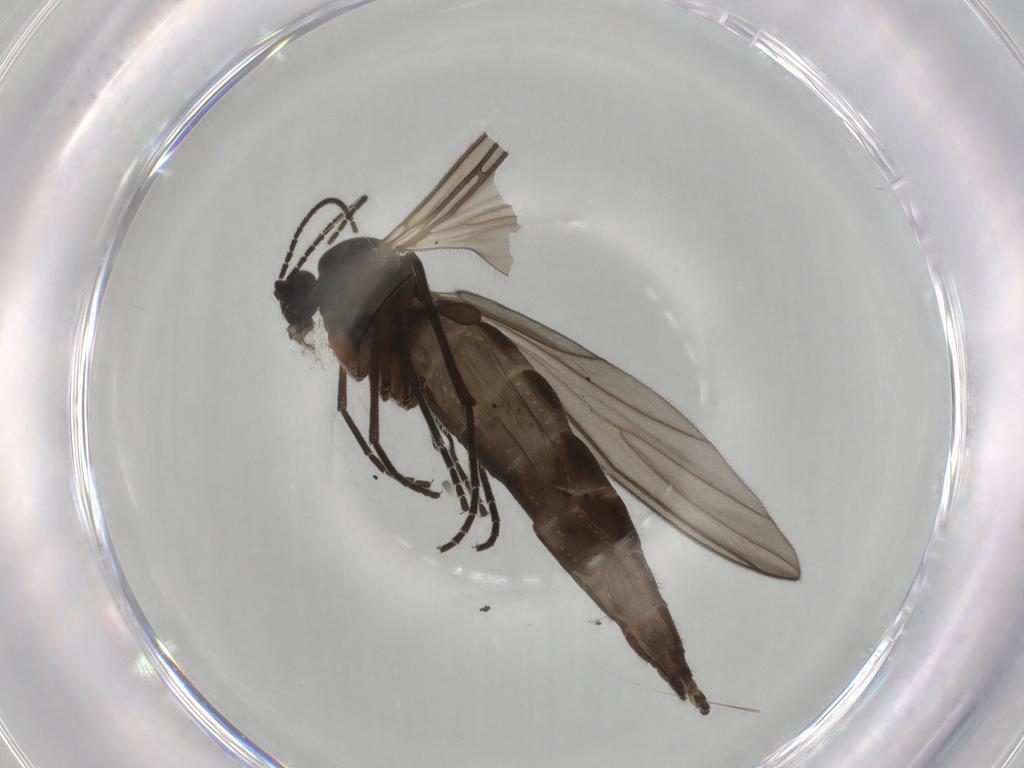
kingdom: Animalia
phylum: Arthropoda
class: Insecta
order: Diptera
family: Sciaridae
